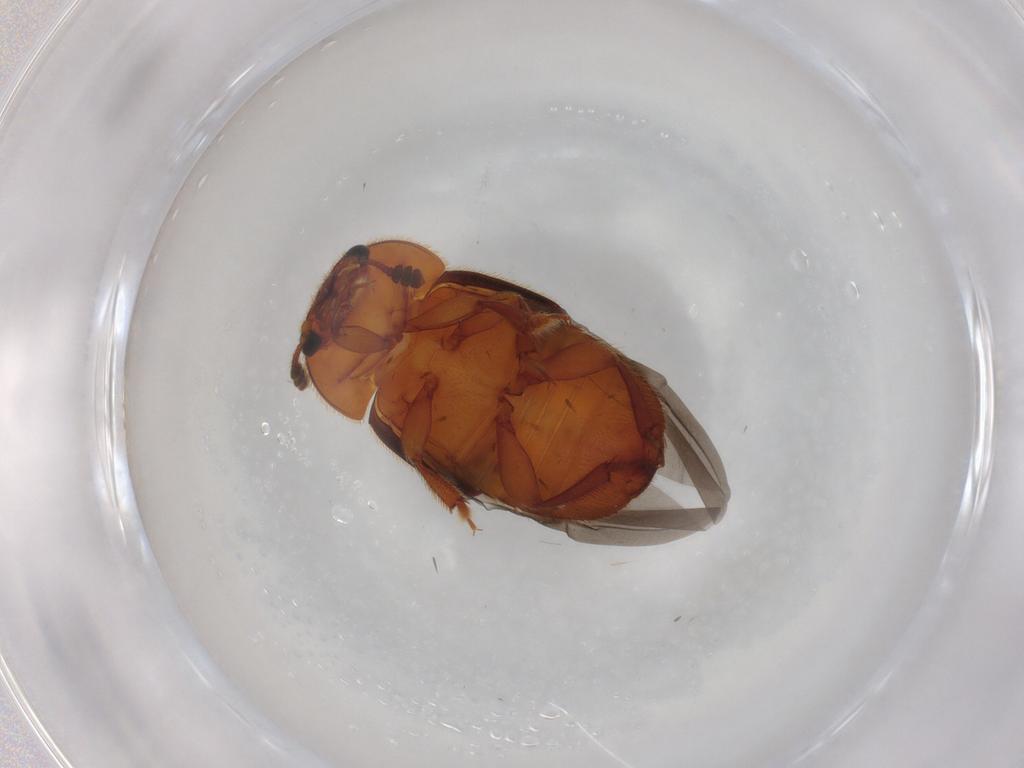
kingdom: Animalia
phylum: Arthropoda
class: Insecta
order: Coleoptera
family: Nitidulidae
